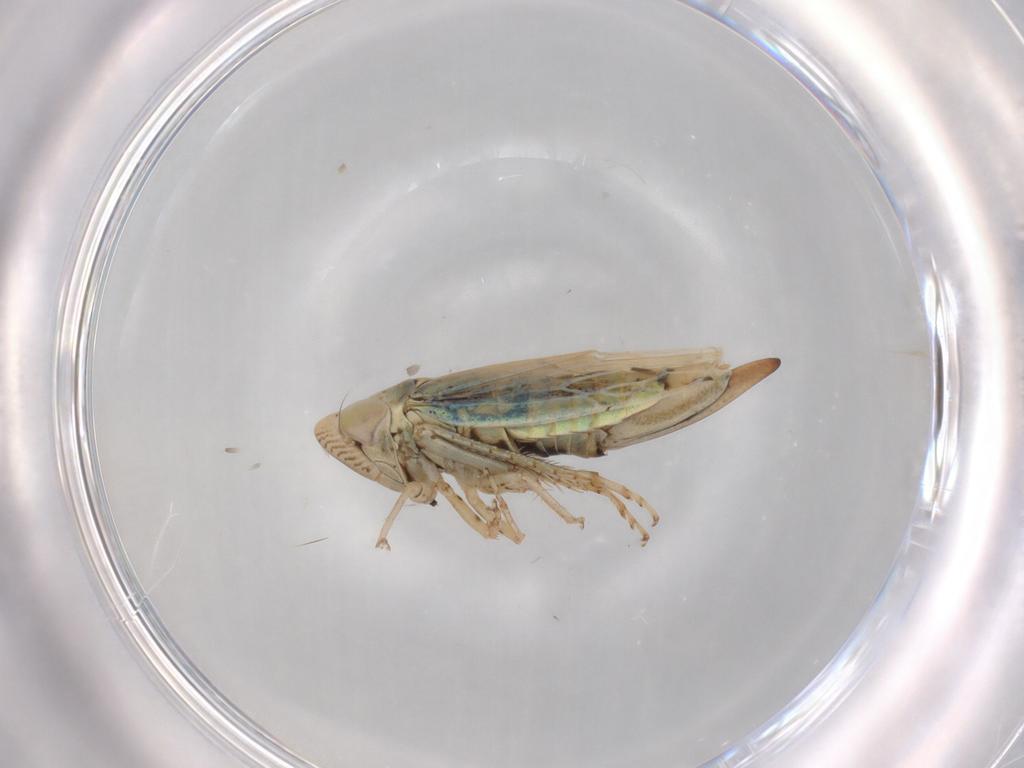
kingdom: Animalia
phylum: Arthropoda
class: Insecta
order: Hemiptera
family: Cicadellidae
